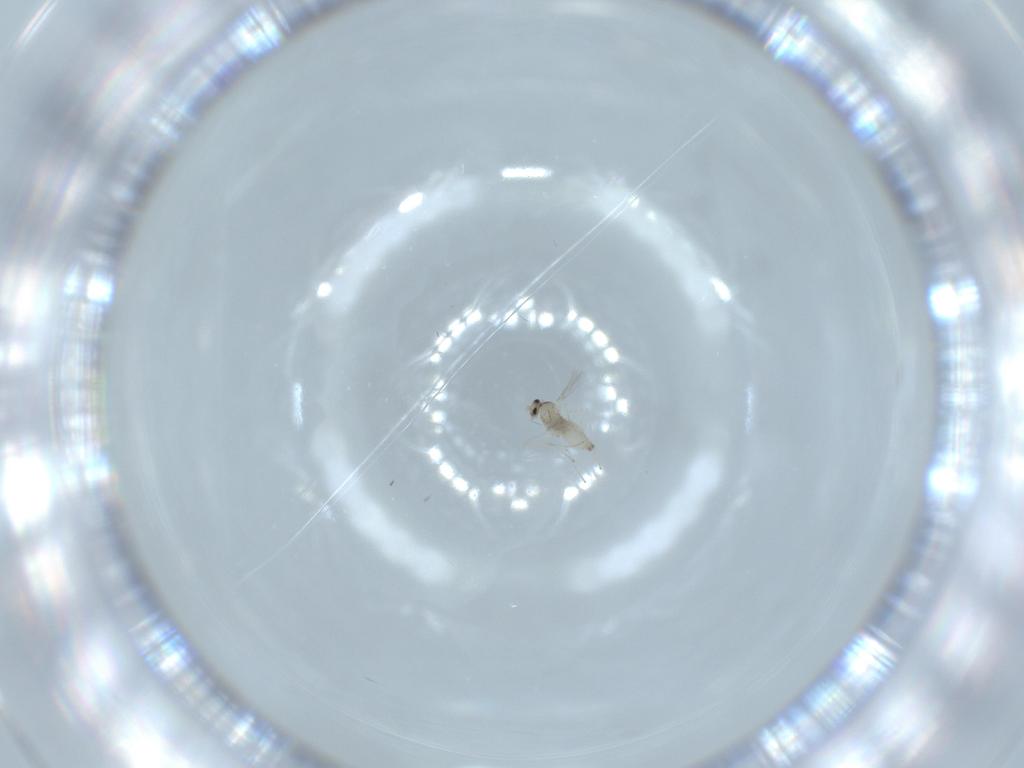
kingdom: Animalia
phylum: Arthropoda
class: Insecta
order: Diptera
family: Cecidomyiidae
